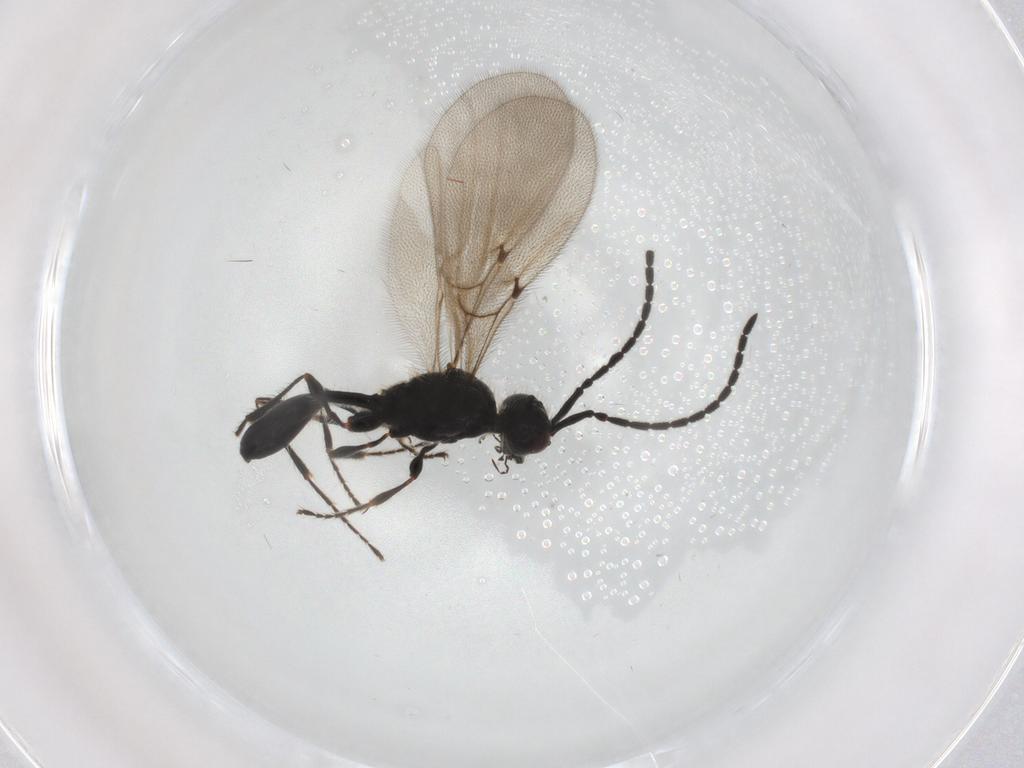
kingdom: Animalia
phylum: Arthropoda
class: Insecta
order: Hymenoptera
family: Diapriidae
